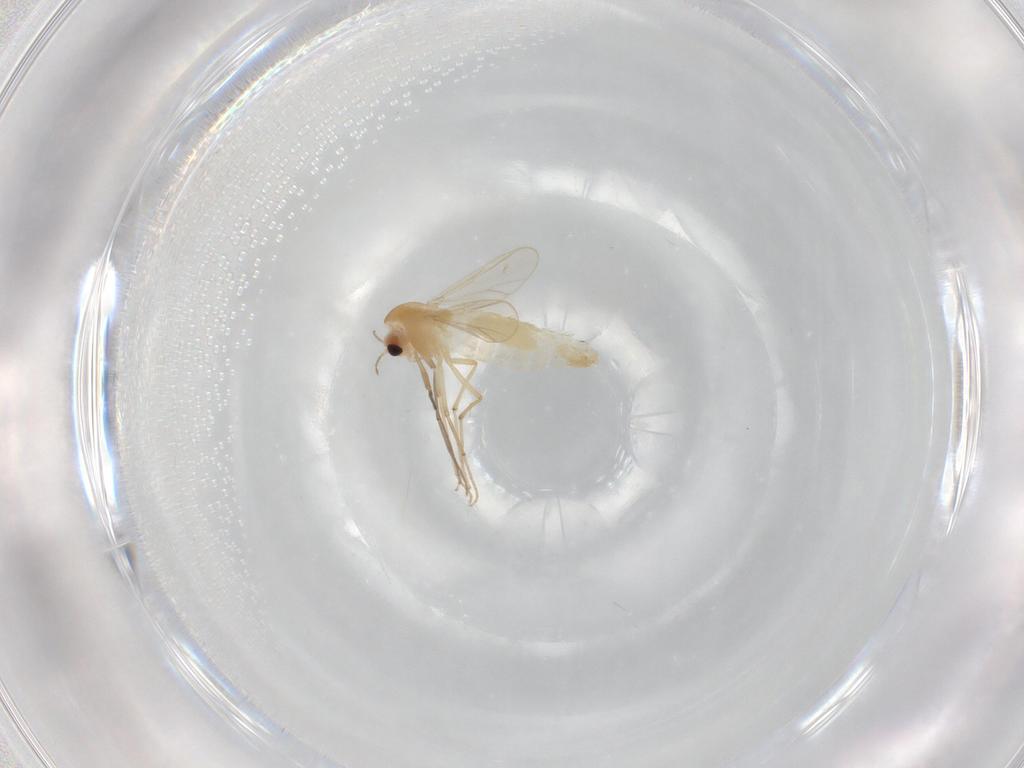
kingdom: Animalia
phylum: Arthropoda
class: Insecta
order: Diptera
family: Chironomidae
